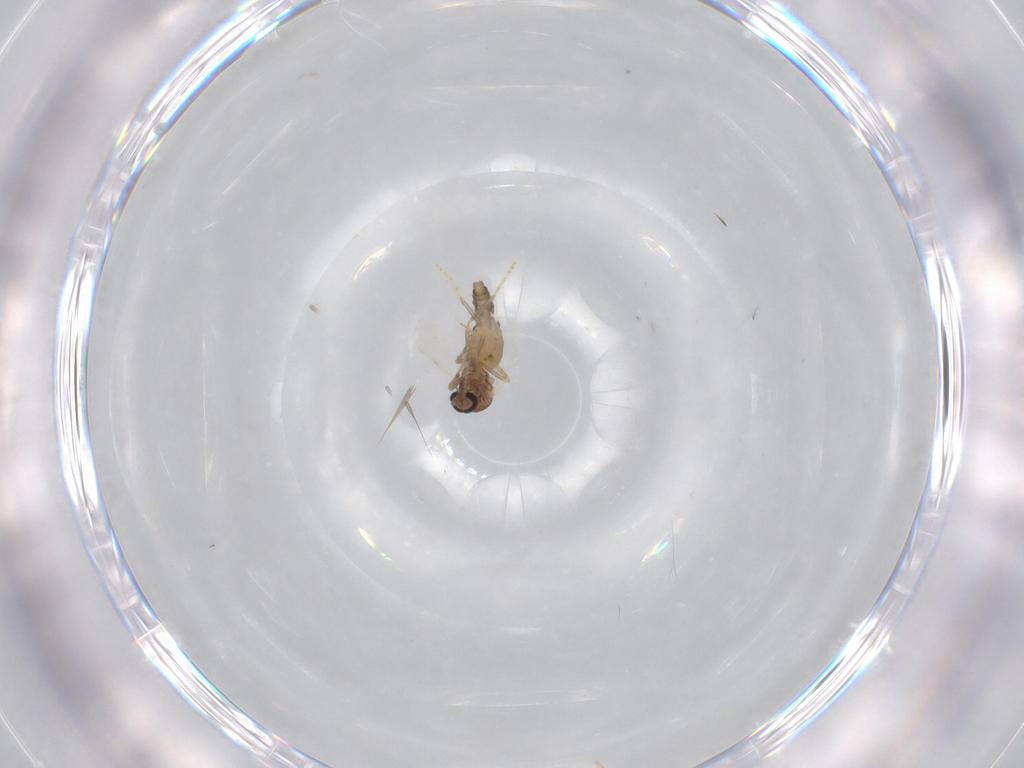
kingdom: Animalia
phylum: Arthropoda
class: Insecta
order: Diptera
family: Ceratopogonidae
